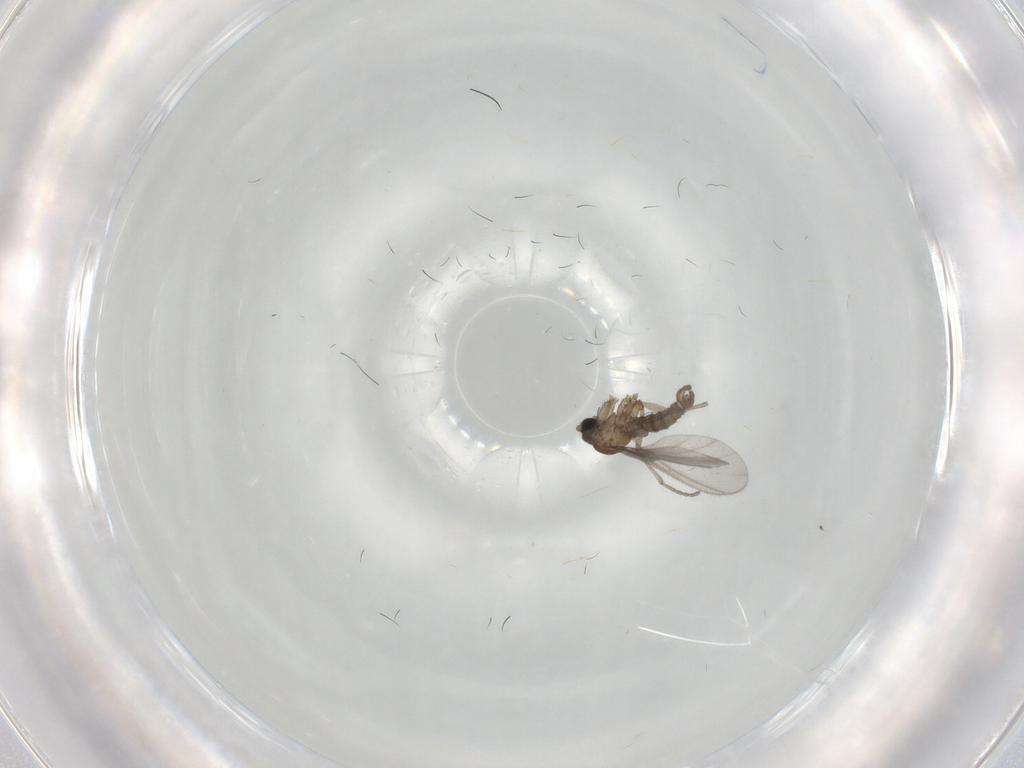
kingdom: Animalia
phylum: Arthropoda
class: Insecta
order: Diptera
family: Sciaridae
